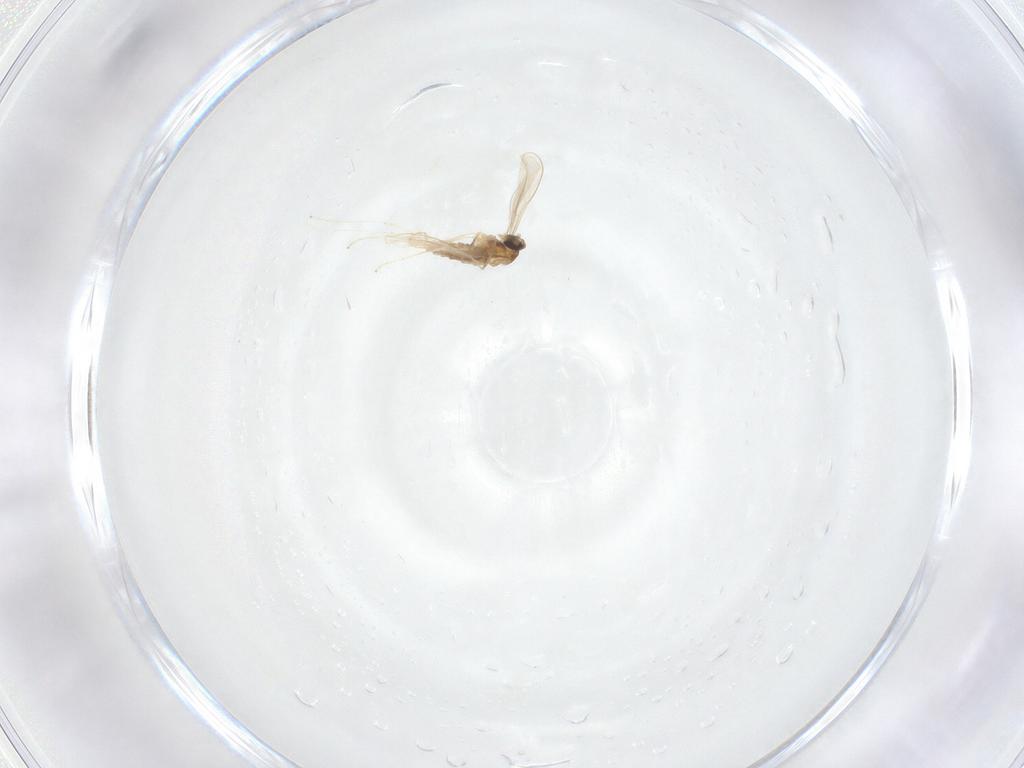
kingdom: Animalia
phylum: Arthropoda
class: Insecta
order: Diptera
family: Cecidomyiidae
